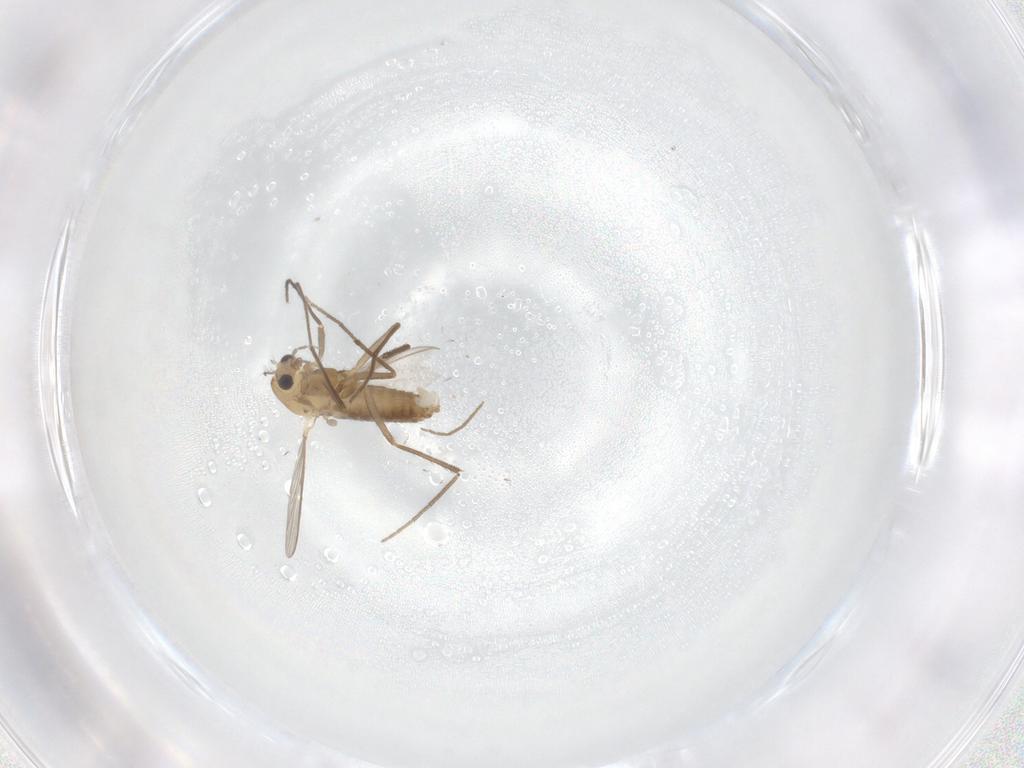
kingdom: Animalia
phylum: Arthropoda
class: Insecta
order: Diptera
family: Chironomidae
